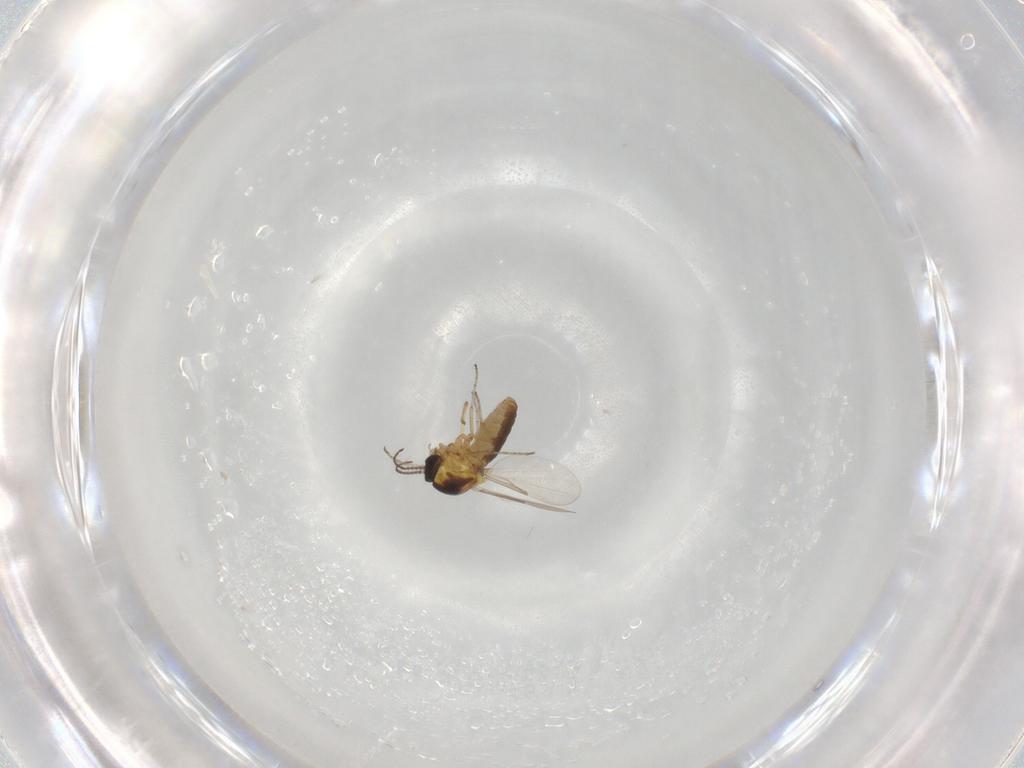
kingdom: Animalia
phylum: Arthropoda
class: Insecta
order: Diptera
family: Ceratopogonidae
